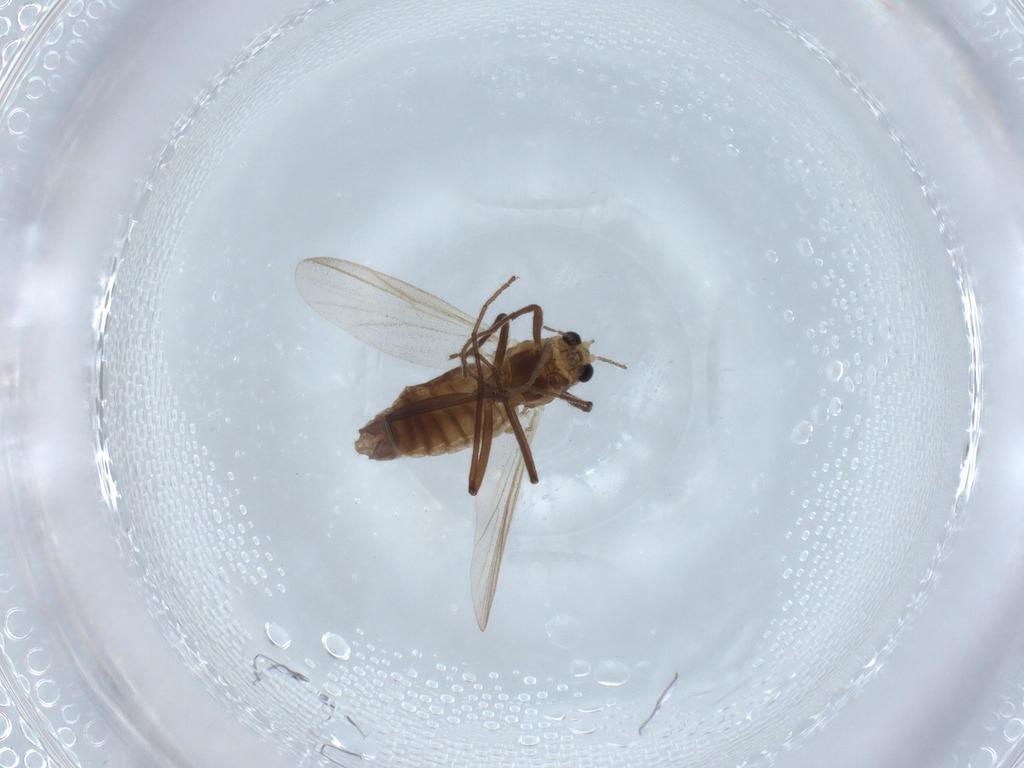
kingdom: Animalia
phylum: Arthropoda
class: Insecta
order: Diptera
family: Chironomidae
